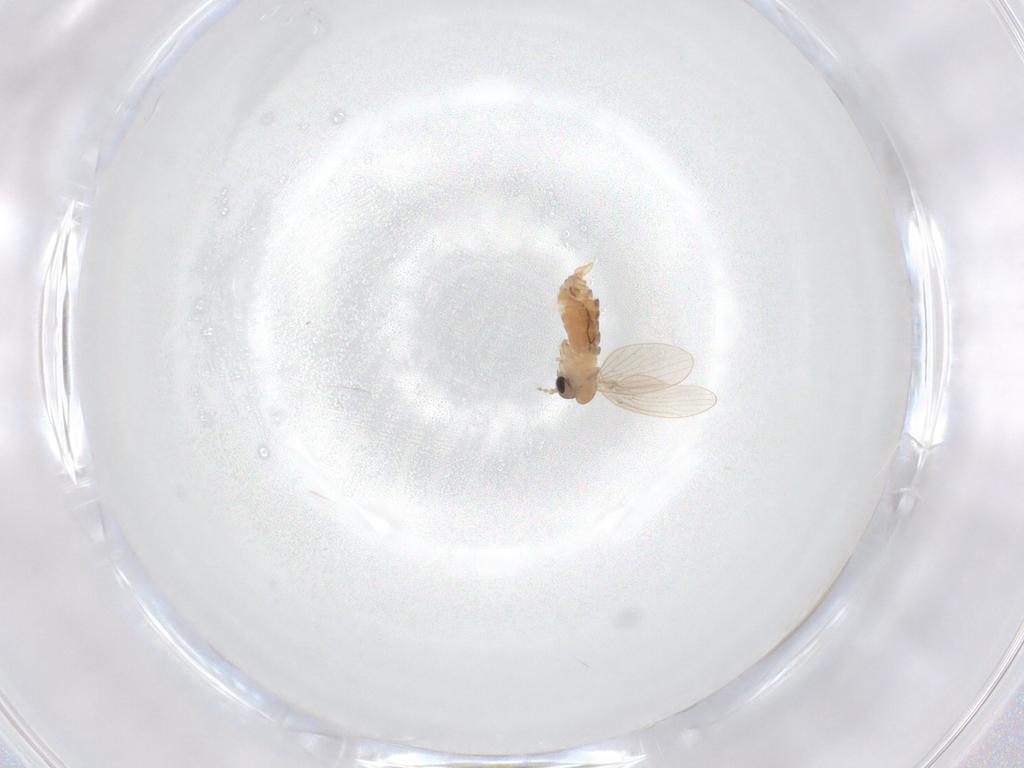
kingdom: Animalia
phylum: Arthropoda
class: Insecta
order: Diptera
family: Psychodidae
